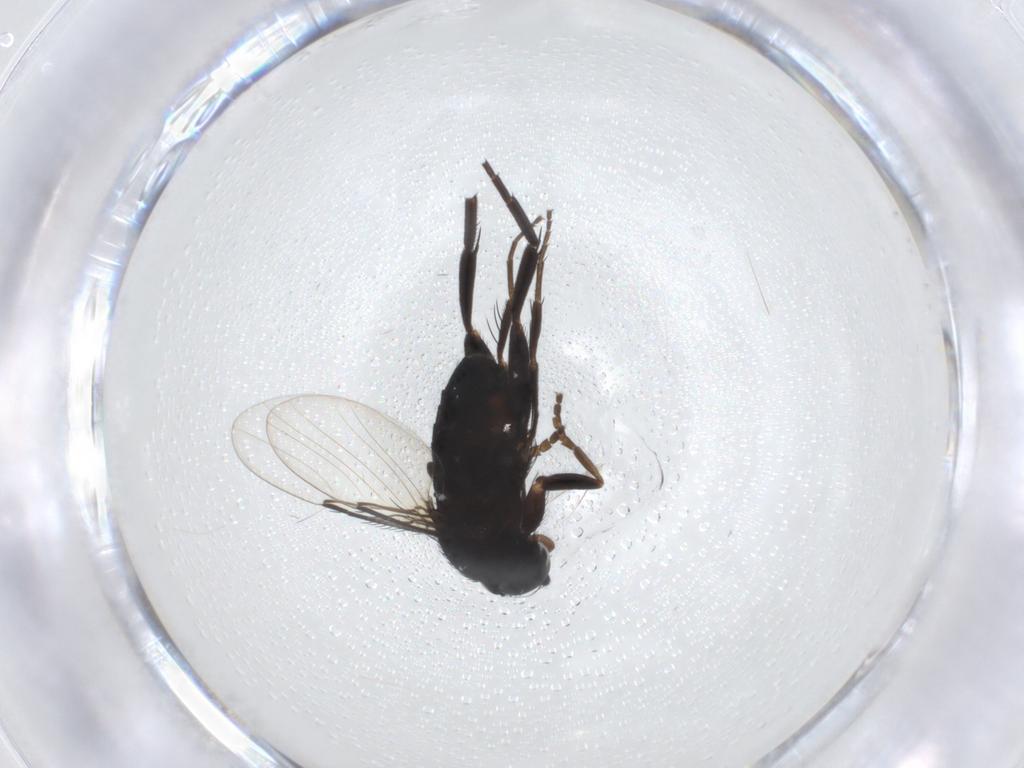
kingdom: Animalia
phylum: Arthropoda
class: Insecta
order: Diptera
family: Phoridae
